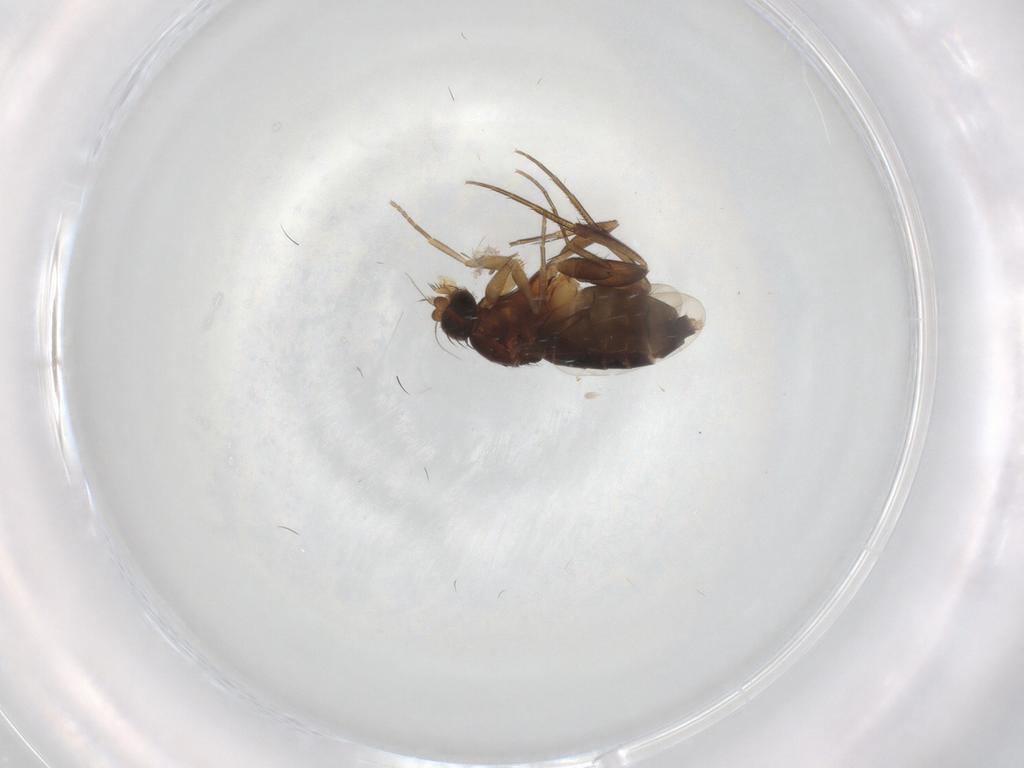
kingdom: Animalia
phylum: Arthropoda
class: Insecta
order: Diptera
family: Phoridae
